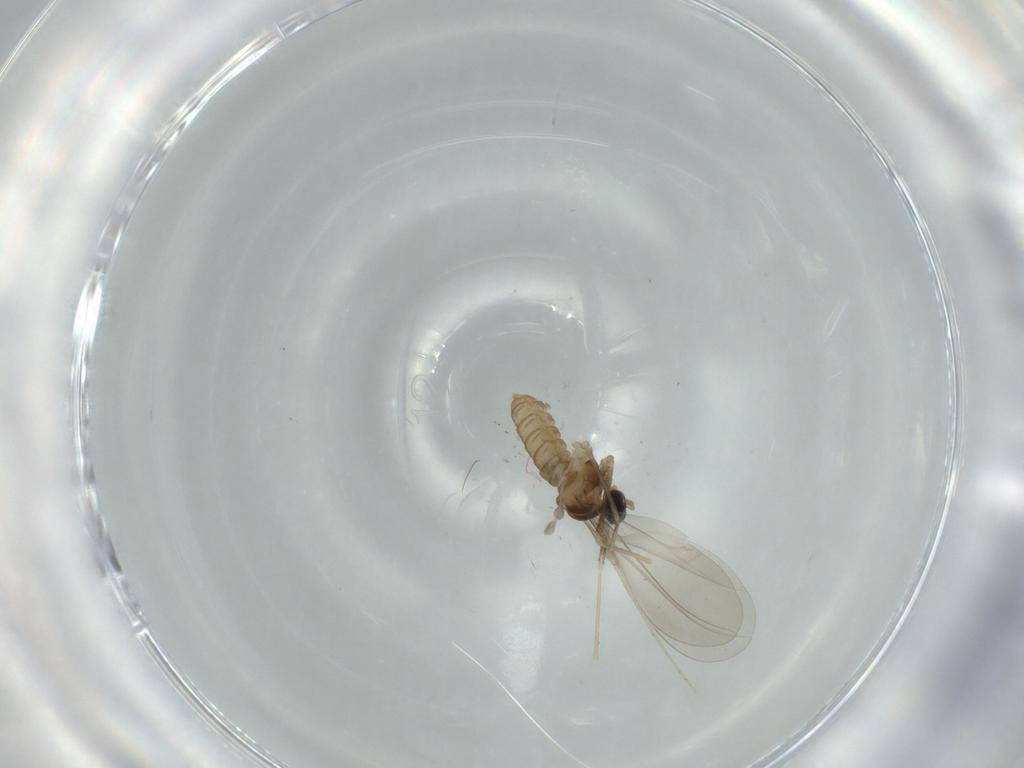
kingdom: Animalia
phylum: Arthropoda
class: Insecta
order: Diptera
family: Cecidomyiidae
